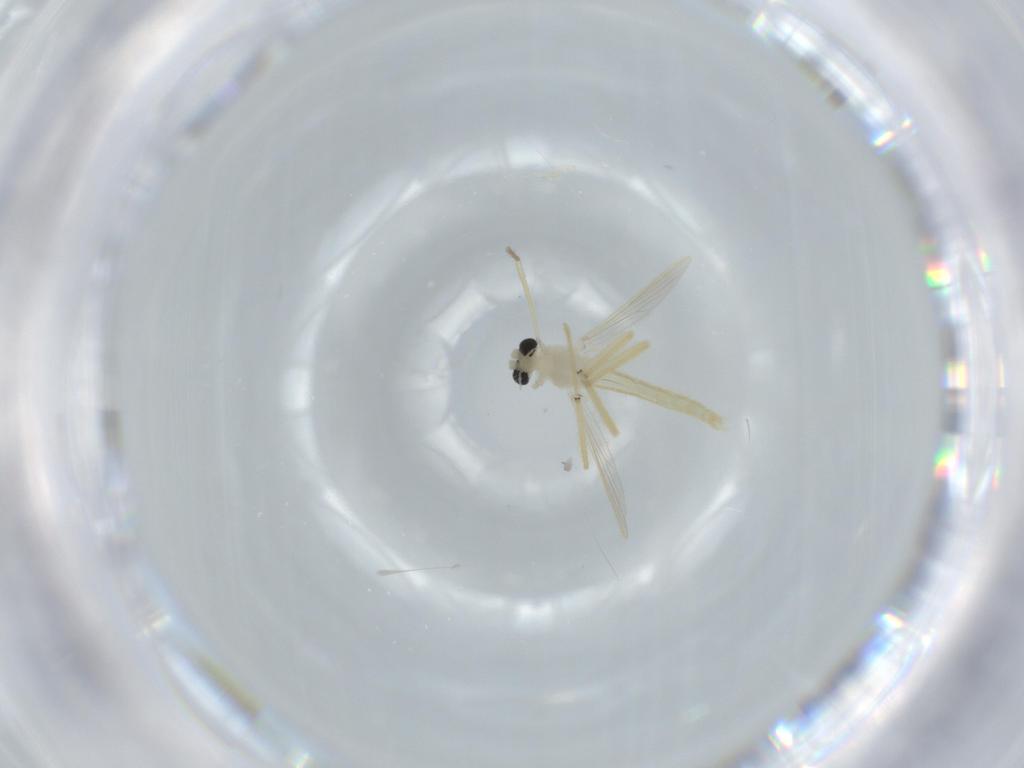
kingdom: Animalia
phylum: Arthropoda
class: Insecta
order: Diptera
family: Chironomidae
